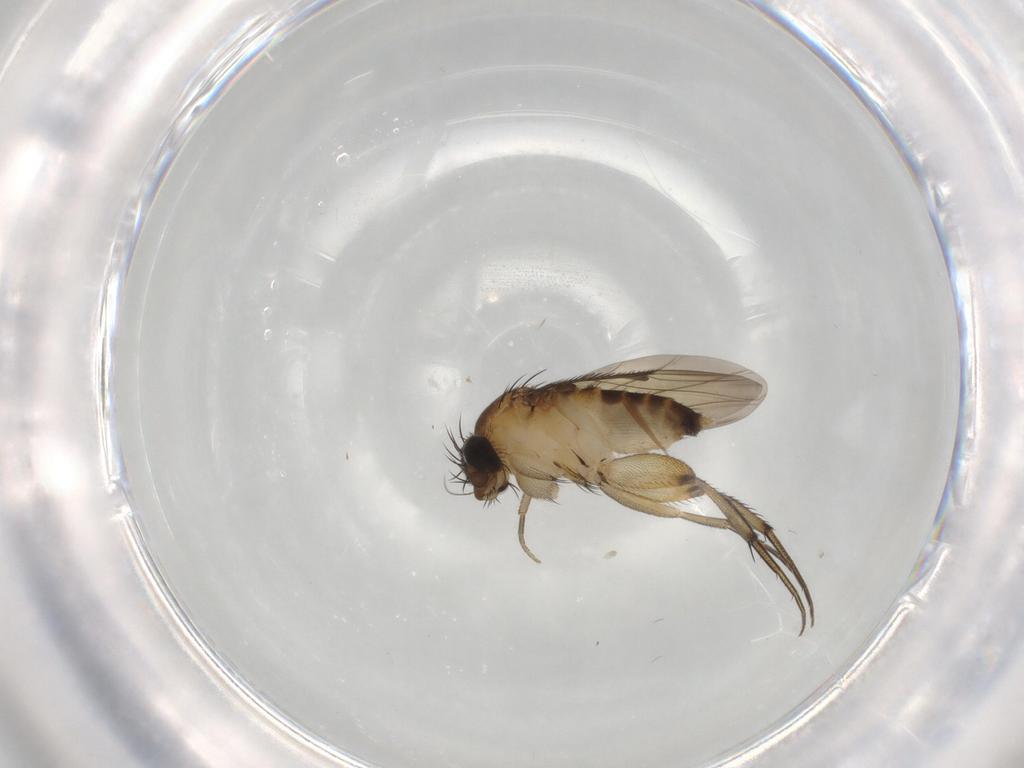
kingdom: Animalia
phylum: Arthropoda
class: Insecta
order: Diptera
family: Phoridae
